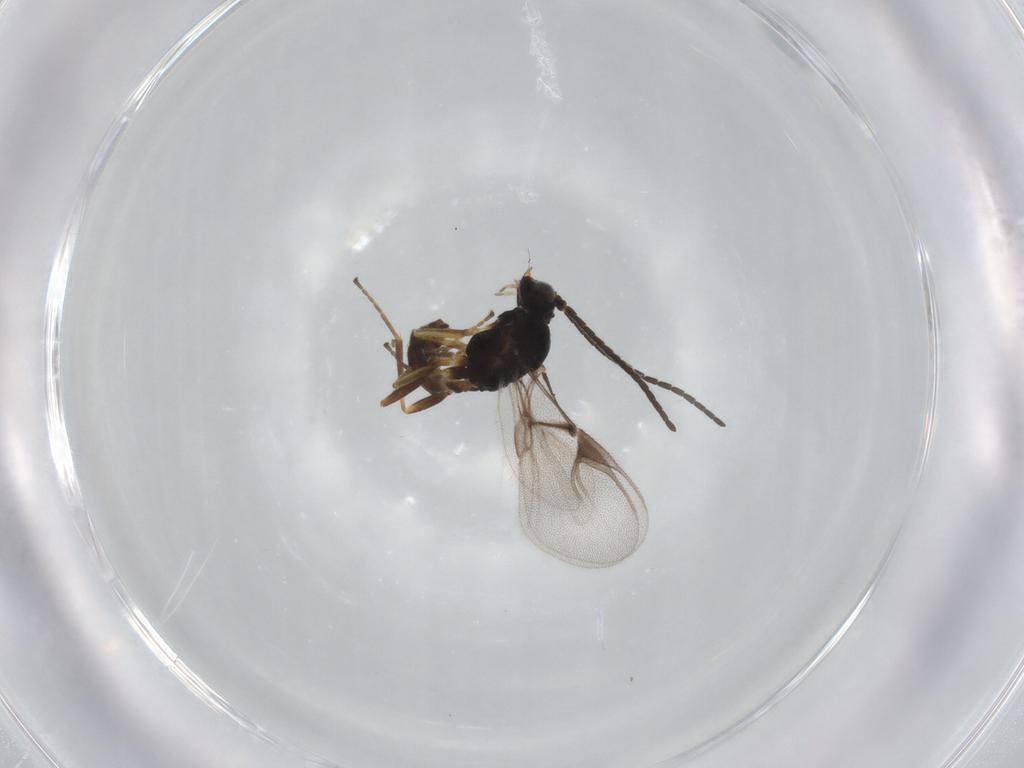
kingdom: Animalia
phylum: Arthropoda
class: Insecta
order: Hymenoptera
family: Braconidae
